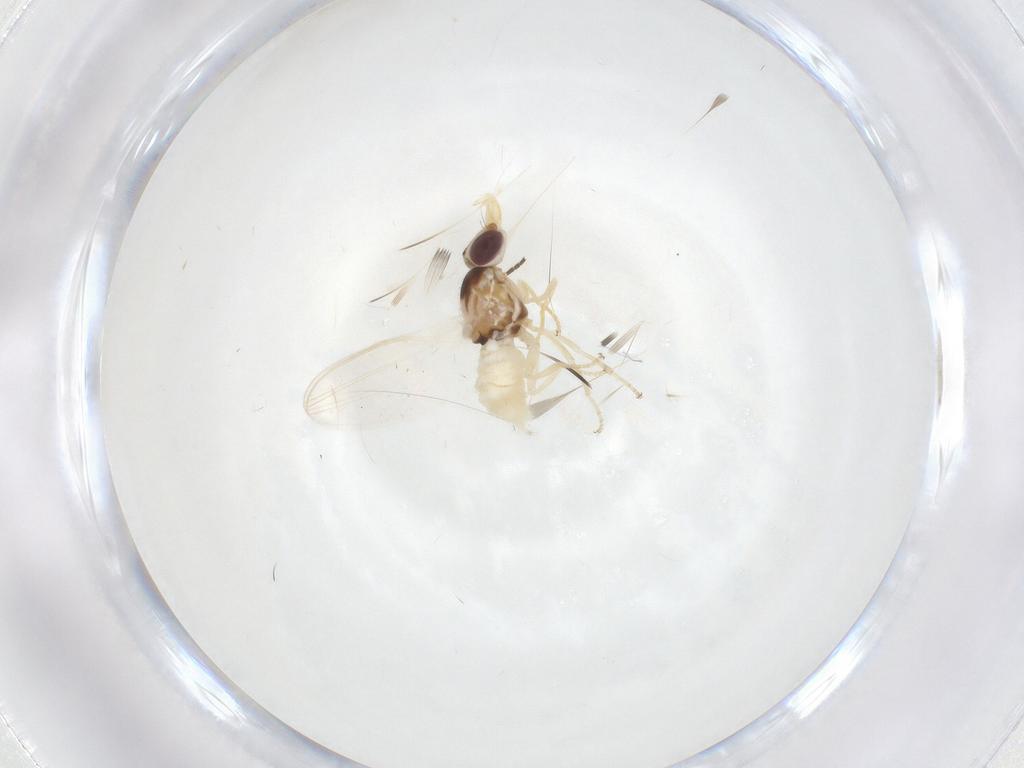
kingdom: Animalia
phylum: Arthropoda
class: Insecta
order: Diptera
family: Chloropidae
